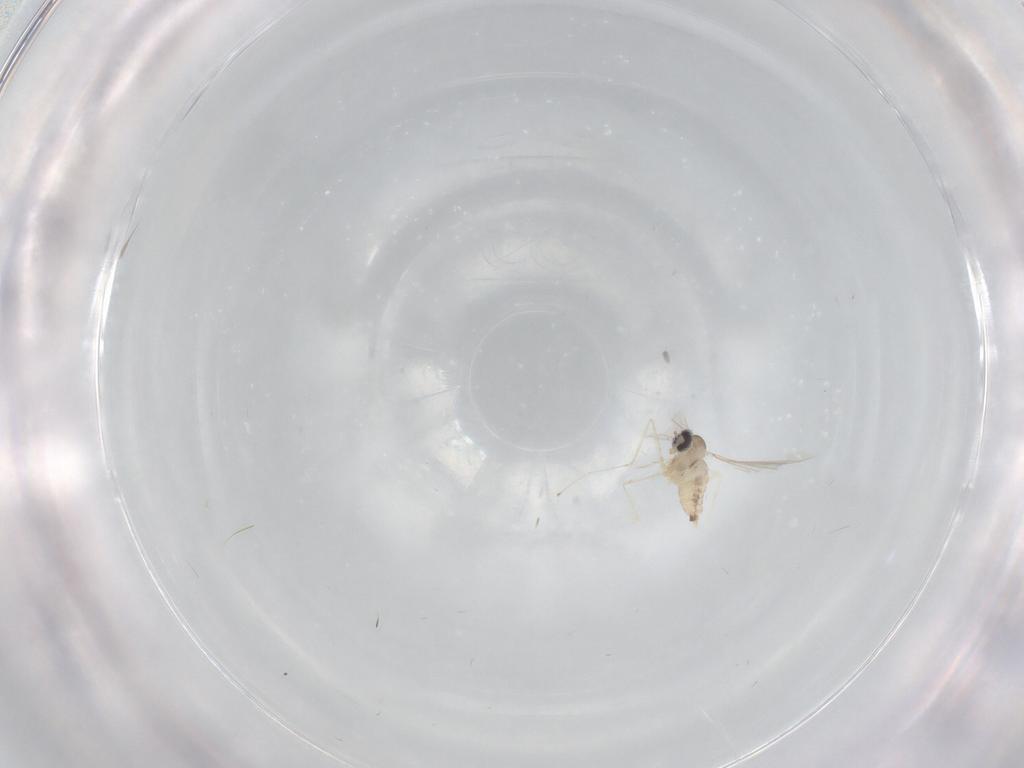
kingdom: Animalia
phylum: Arthropoda
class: Insecta
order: Diptera
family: Cecidomyiidae
